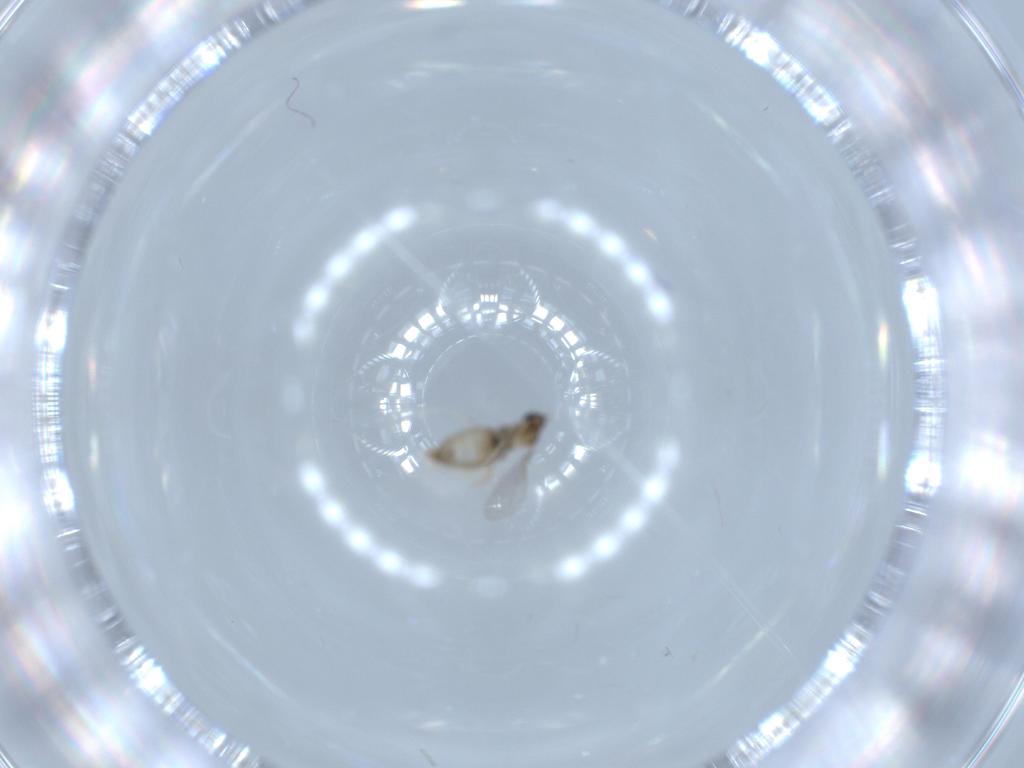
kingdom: Animalia
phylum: Arthropoda
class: Insecta
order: Diptera
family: Cecidomyiidae
